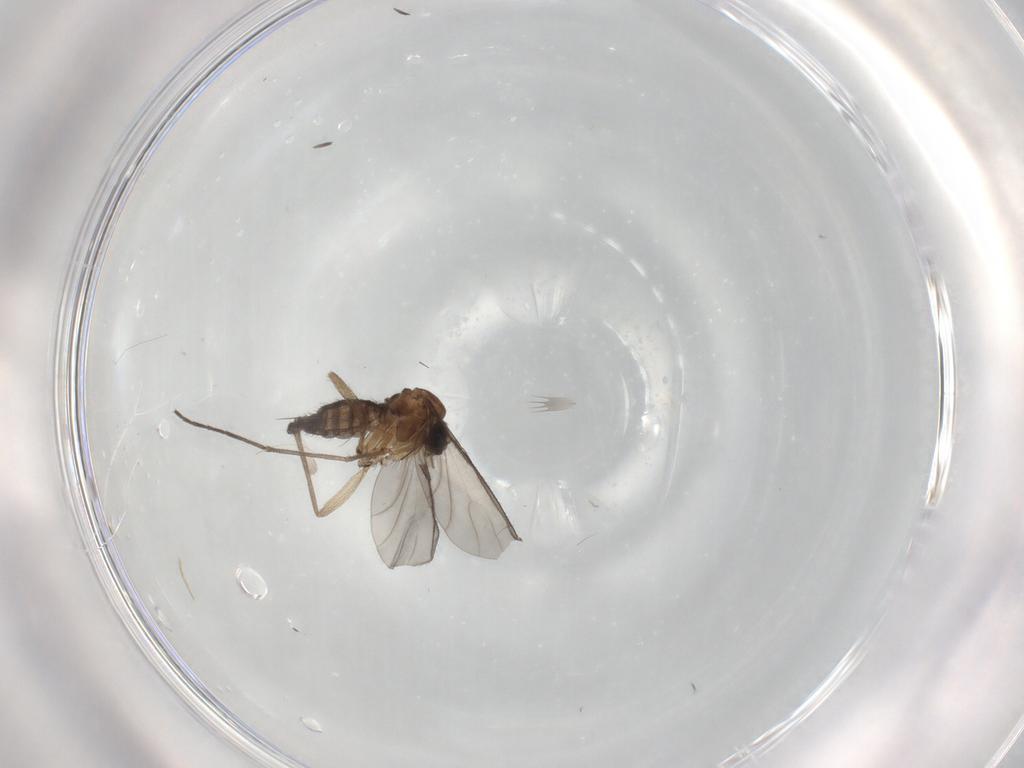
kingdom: Animalia
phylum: Arthropoda
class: Insecta
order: Diptera
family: Sciaridae
